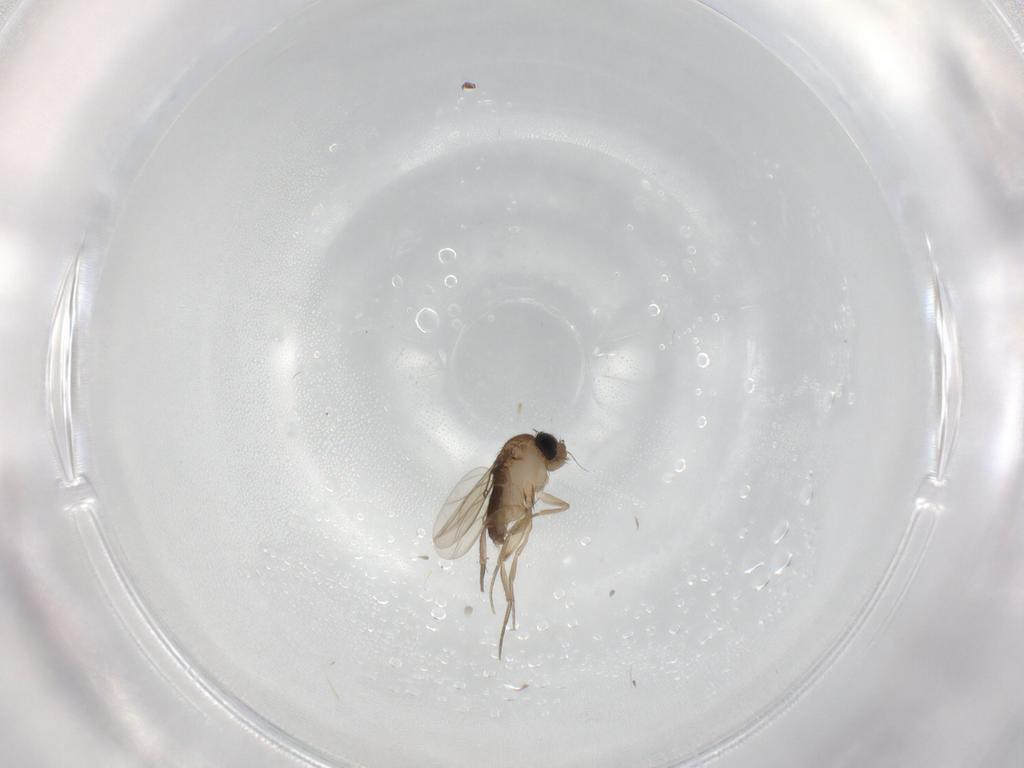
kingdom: Animalia
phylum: Arthropoda
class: Insecta
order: Diptera
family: Phoridae
